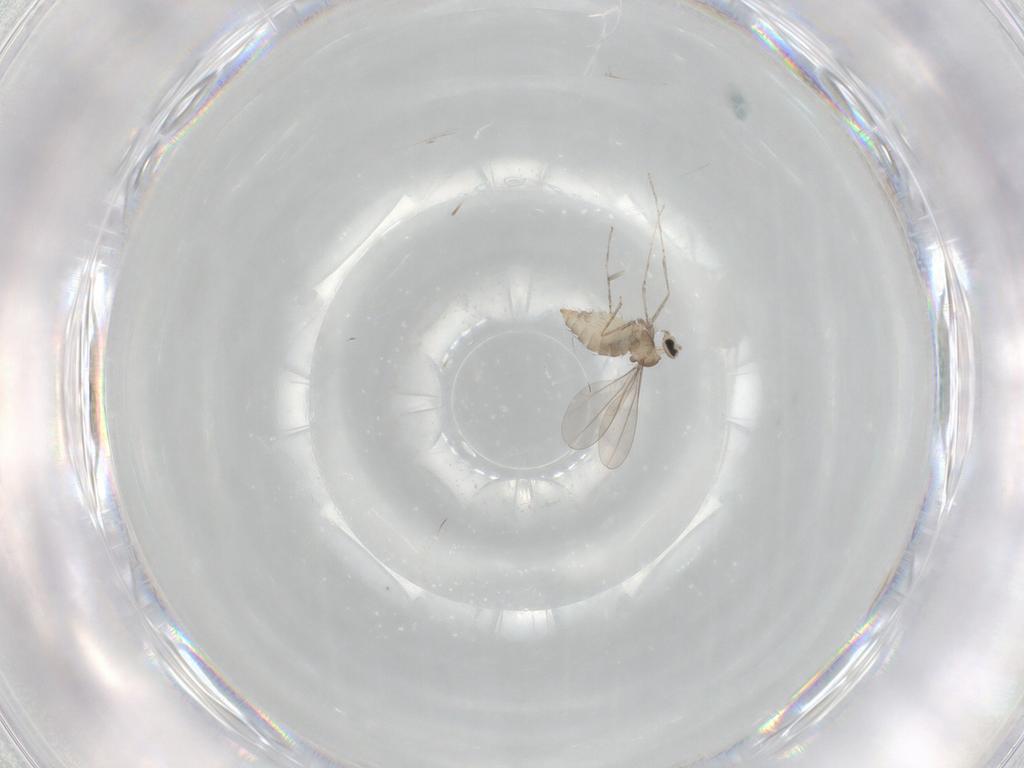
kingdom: Animalia
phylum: Arthropoda
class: Insecta
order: Diptera
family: Cecidomyiidae
